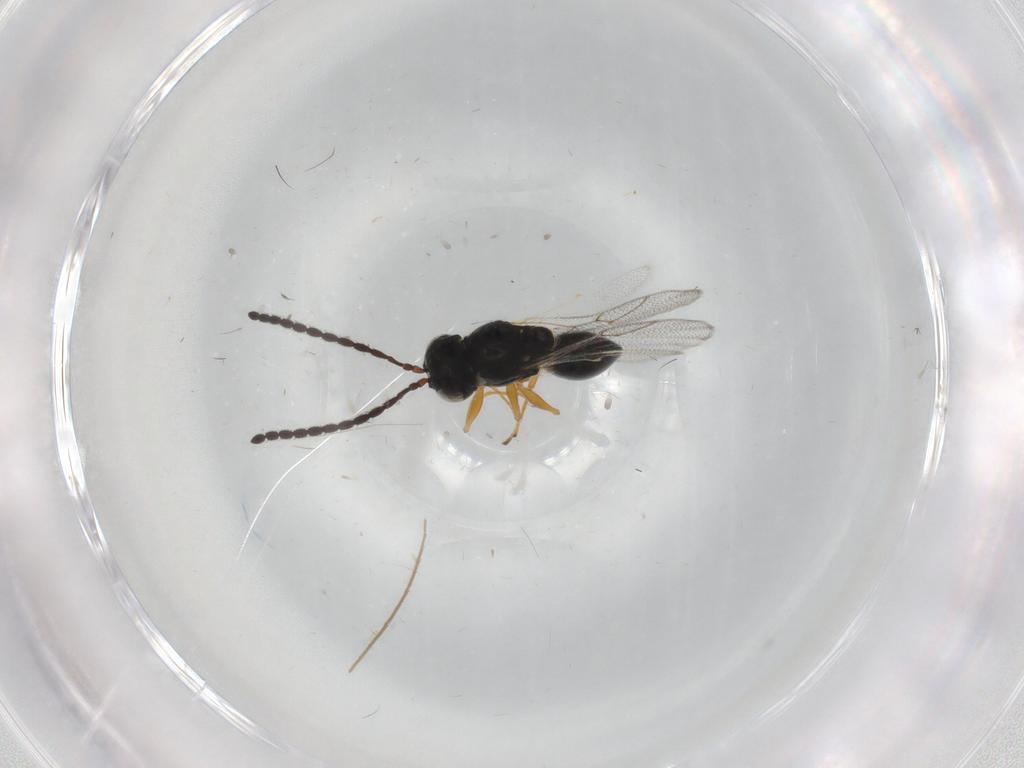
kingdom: Animalia
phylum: Arthropoda
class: Insecta
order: Hymenoptera
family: Figitidae
